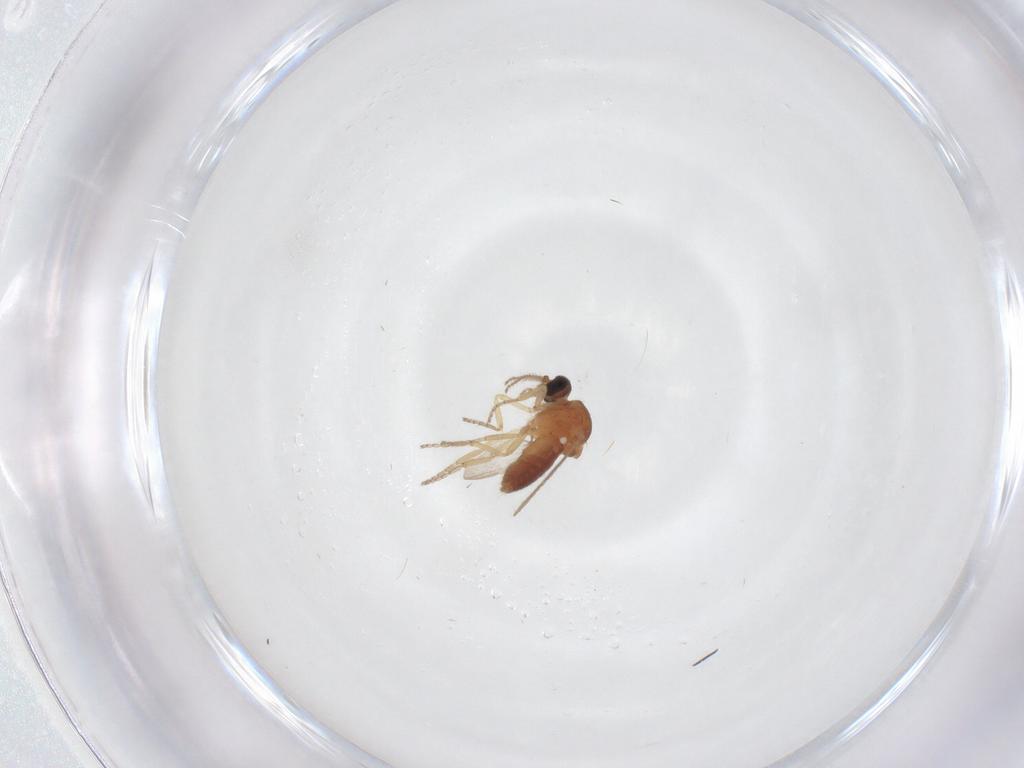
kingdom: Animalia
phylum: Arthropoda
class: Insecta
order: Diptera
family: Ceratopogonidae
